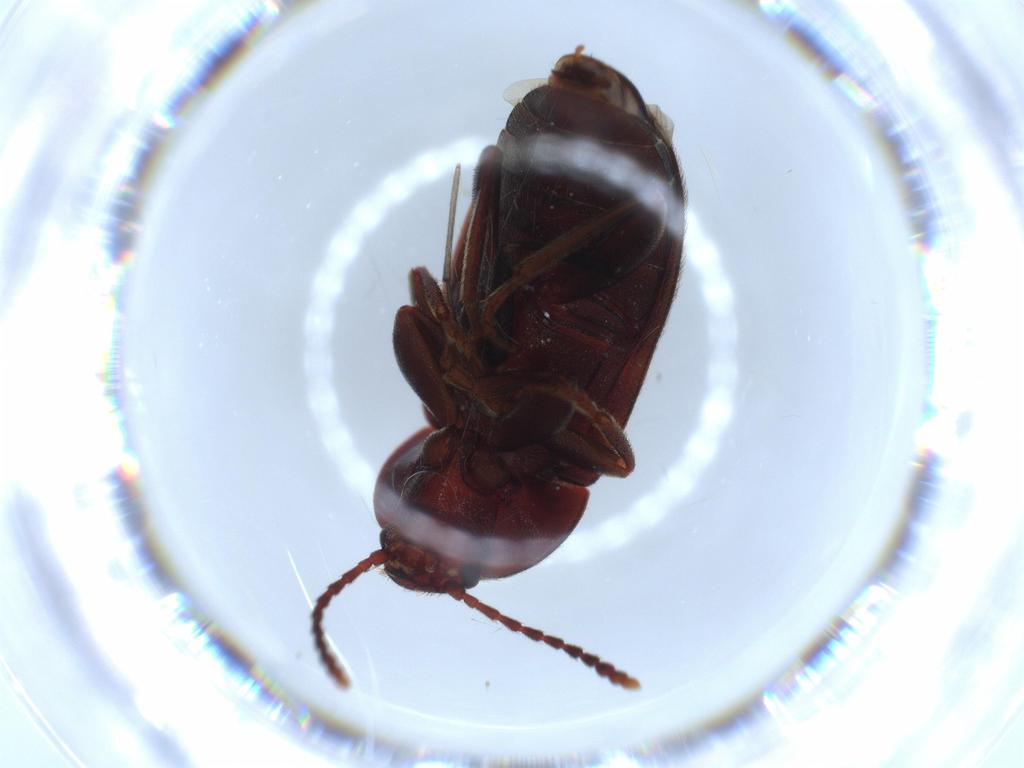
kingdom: Animalia
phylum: Arthropoda
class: Insecta
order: Coleoptera
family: Mycetophagidae
